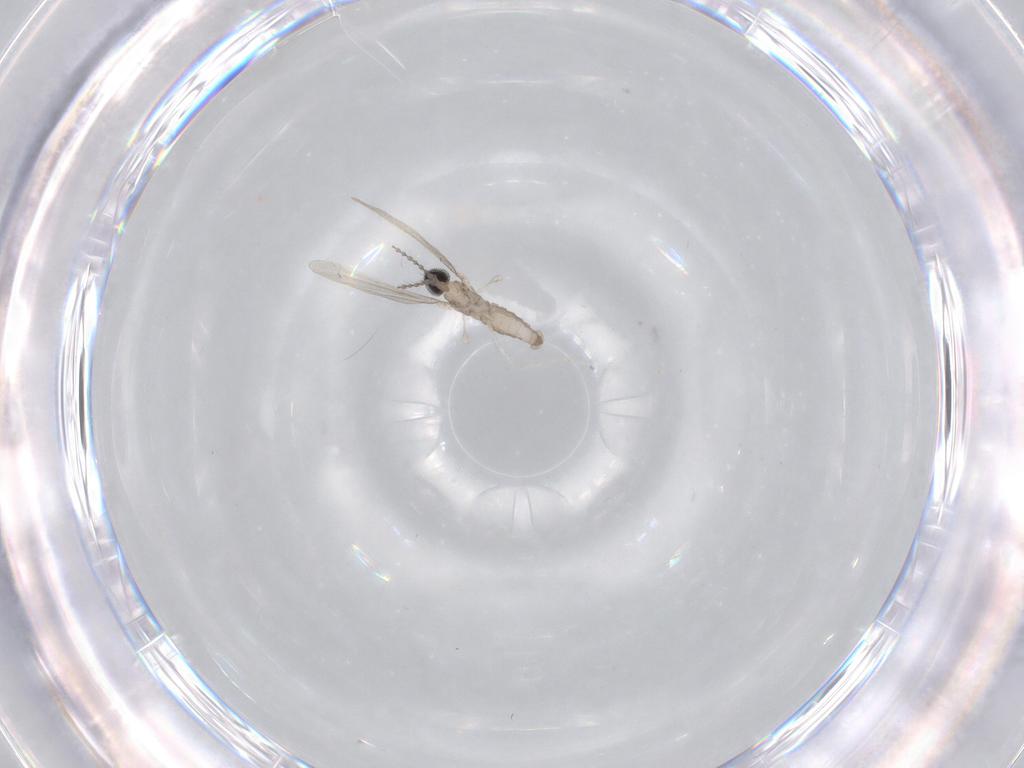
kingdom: Animalia
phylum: Arthropoda
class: Insecta
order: Diptera
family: Cecidomyiidae
